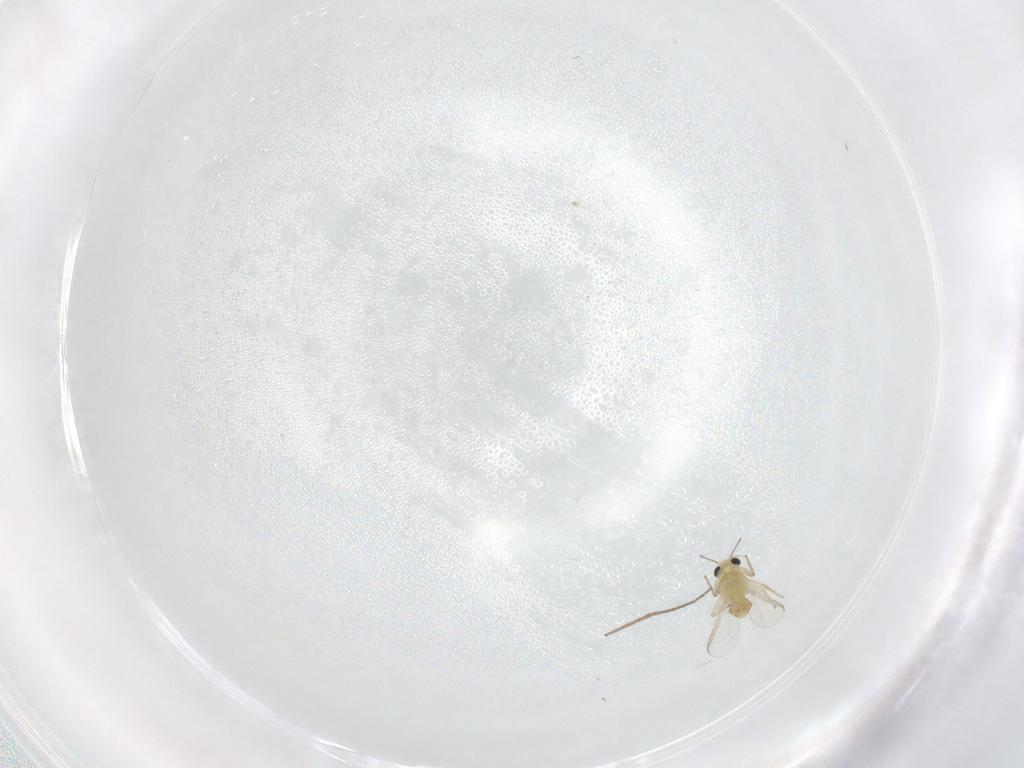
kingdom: Animalia
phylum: Arthropoda
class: Insecta
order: Diptera
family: Chironomidae
